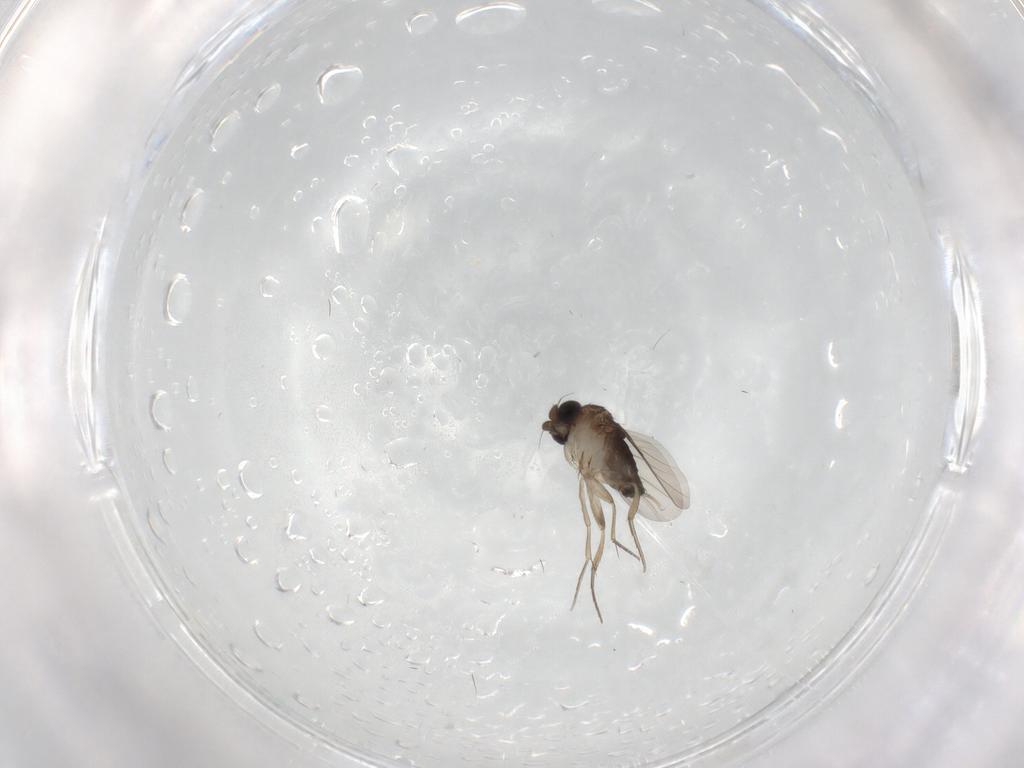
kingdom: Animalia
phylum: Arthropoda
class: Insecta
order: Diptera
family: Phoridae
